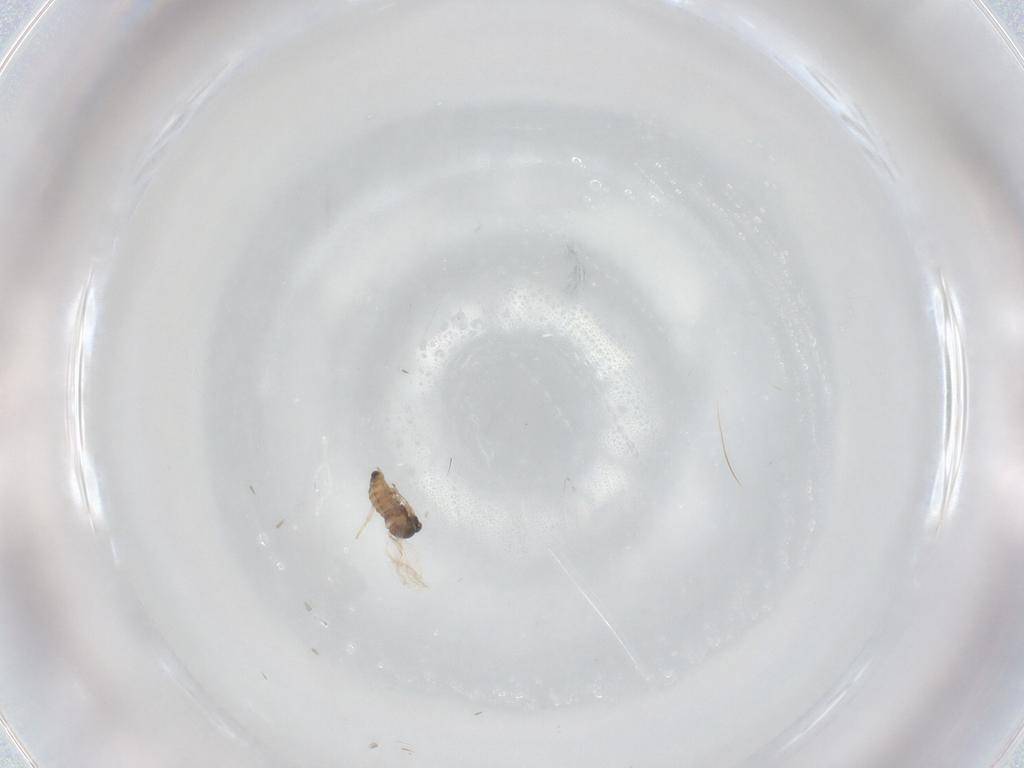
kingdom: Animalia
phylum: Arthropoda
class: Insecta
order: Diptera
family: Cecidomyiidae
